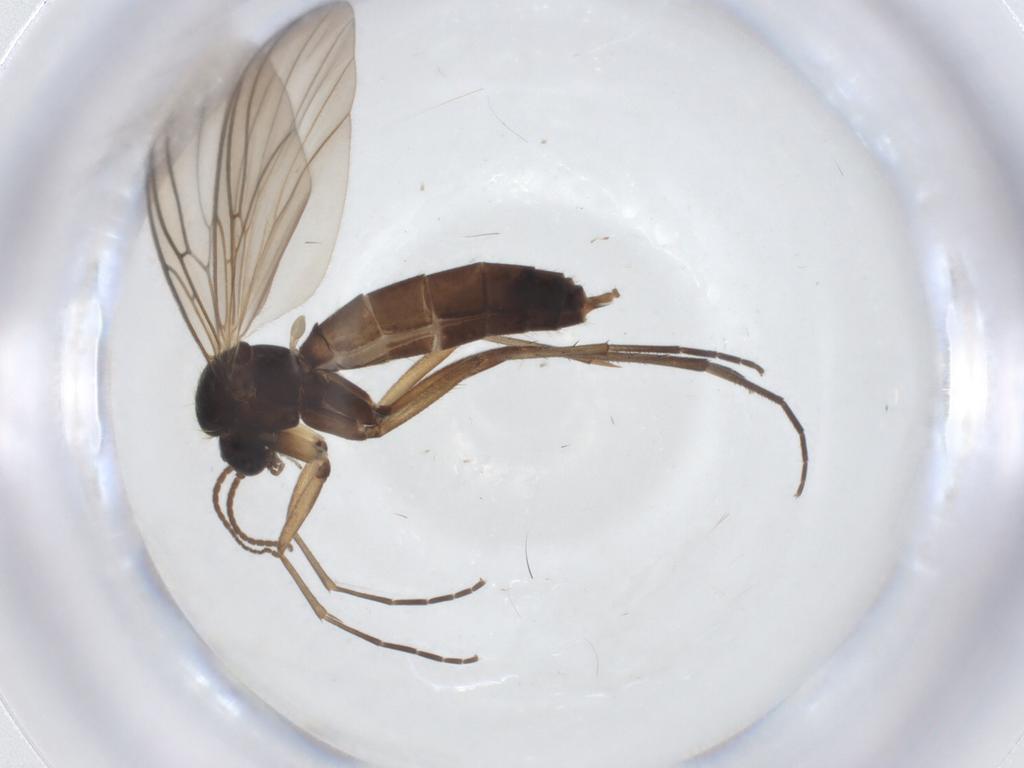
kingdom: Animalia
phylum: Arthropoda
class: Insecta
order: Diptera
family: Mycetophilidae
